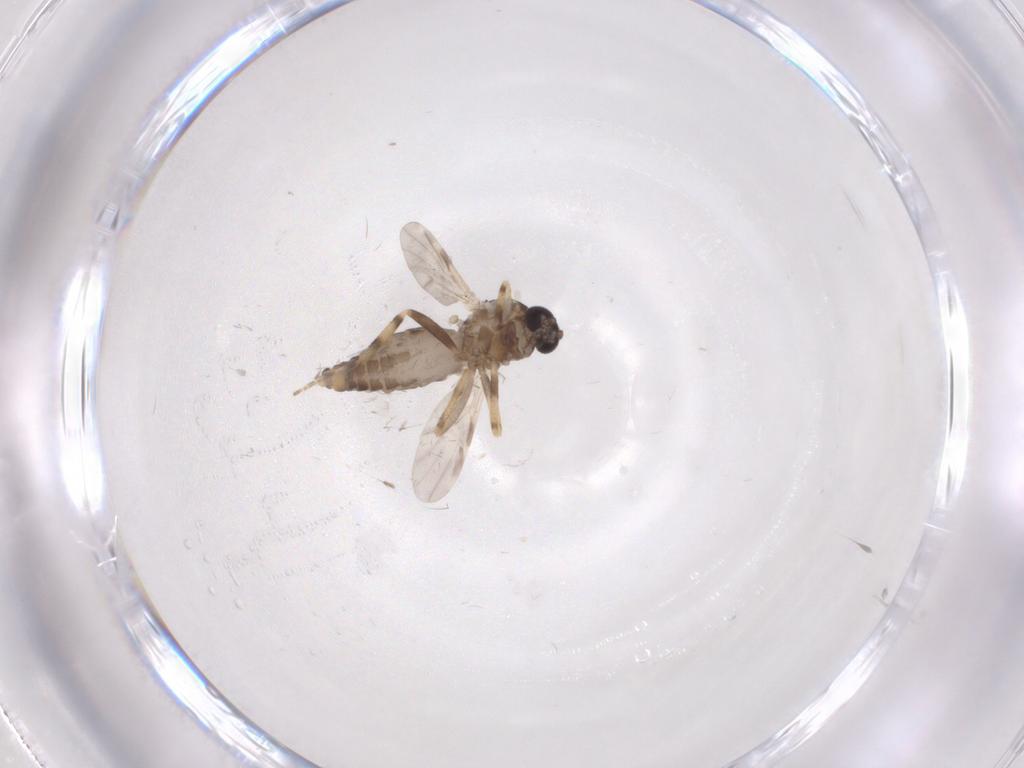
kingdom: Animalia
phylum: Arthropoda
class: Insecta
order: Diptera
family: Ceratopogonidae
